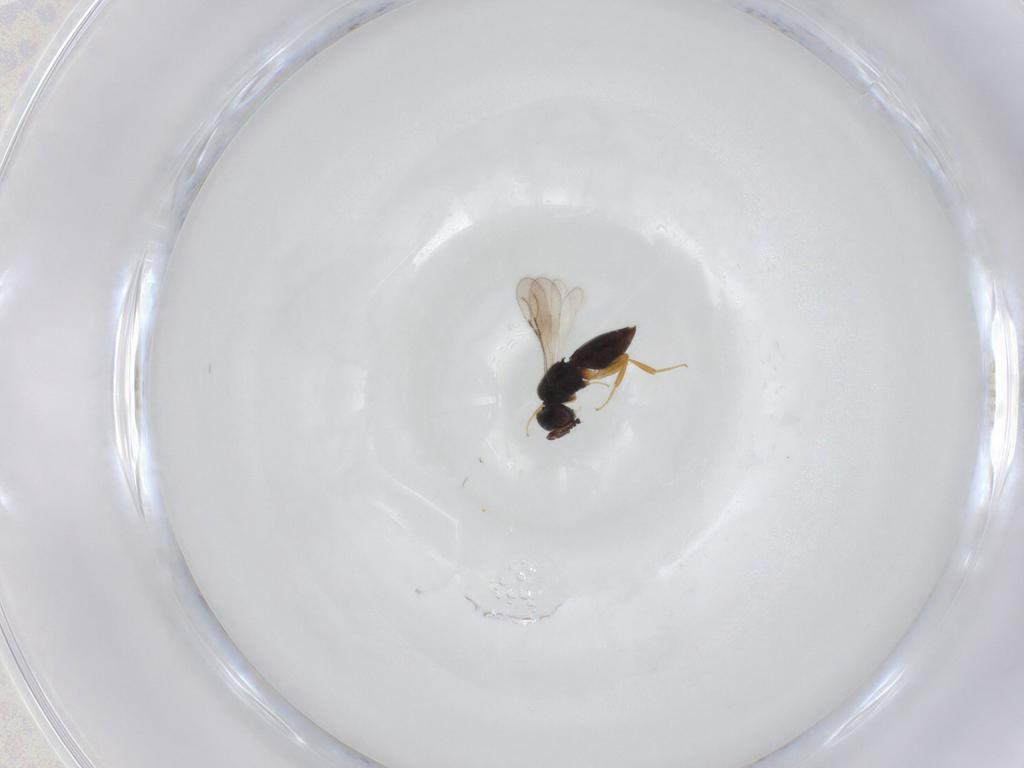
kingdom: Animalia
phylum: Arthropoda
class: Insecta
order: Hymenoptera
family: Ceraphronidae
